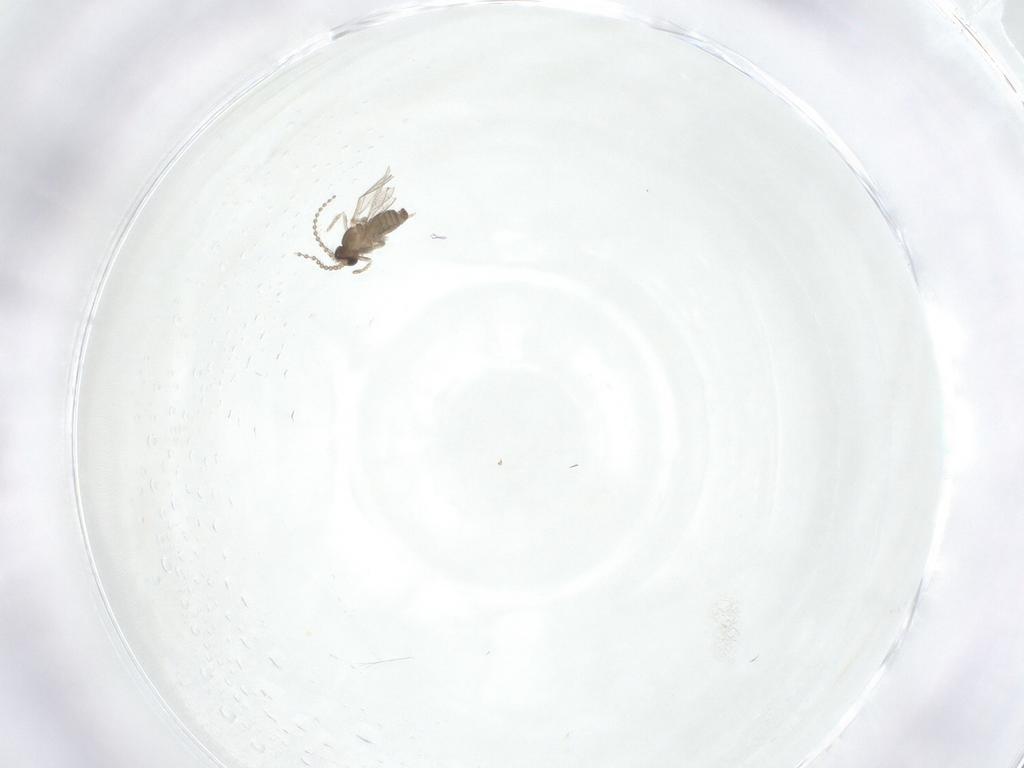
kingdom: Animalia
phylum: Arthropoda
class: Insecta
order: Diptera
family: Cecidomyiidae
